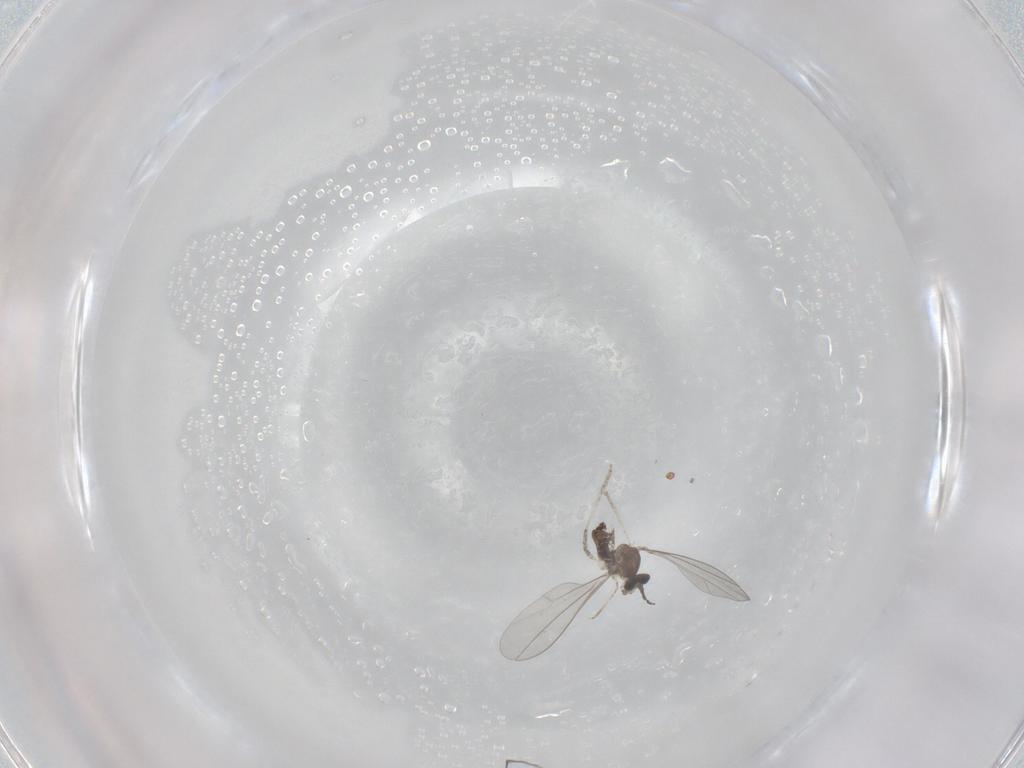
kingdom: Animalia
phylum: Arthropoda
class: Insecta
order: Diptera
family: Cecidomyiidae
